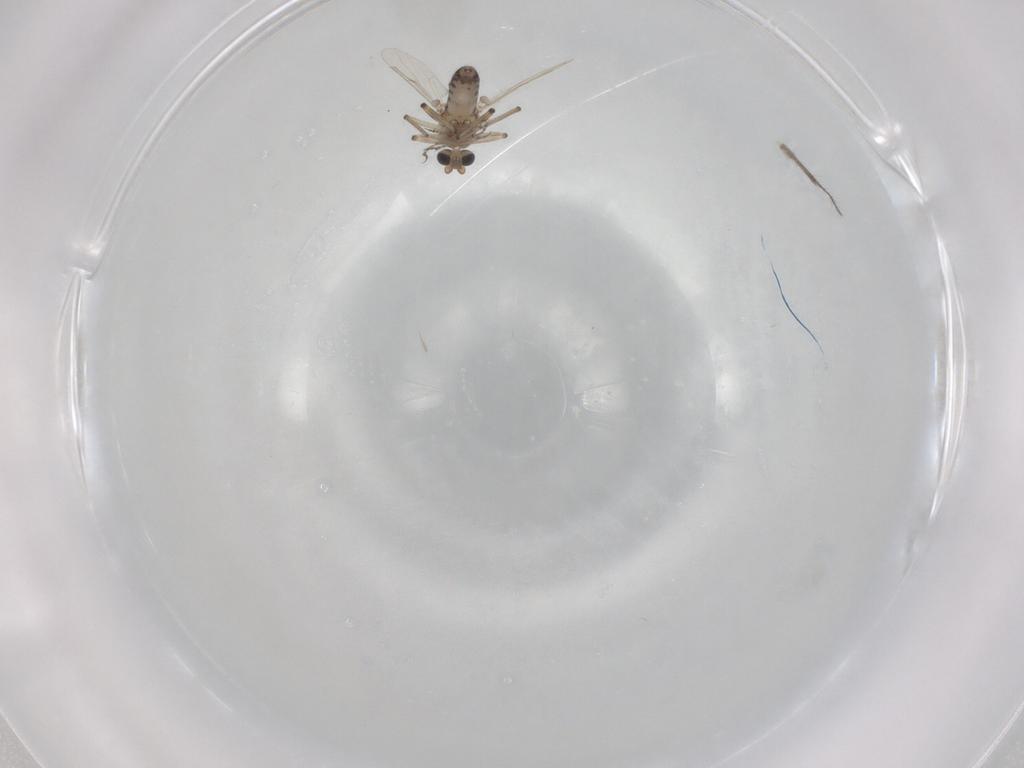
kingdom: Animalia
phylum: Arthropoda
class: Insecta
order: Diptera
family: Ceratopogonidae
